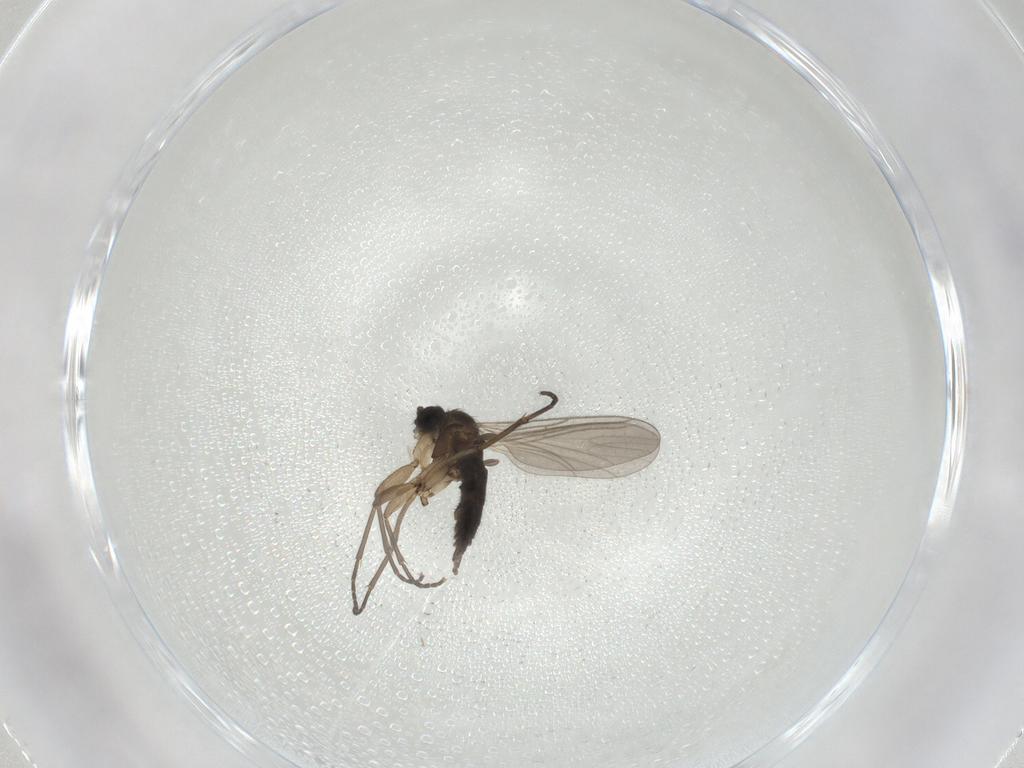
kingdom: Animalia
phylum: Arthropoda
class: Insecta
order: Diptera
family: Sciaridae
